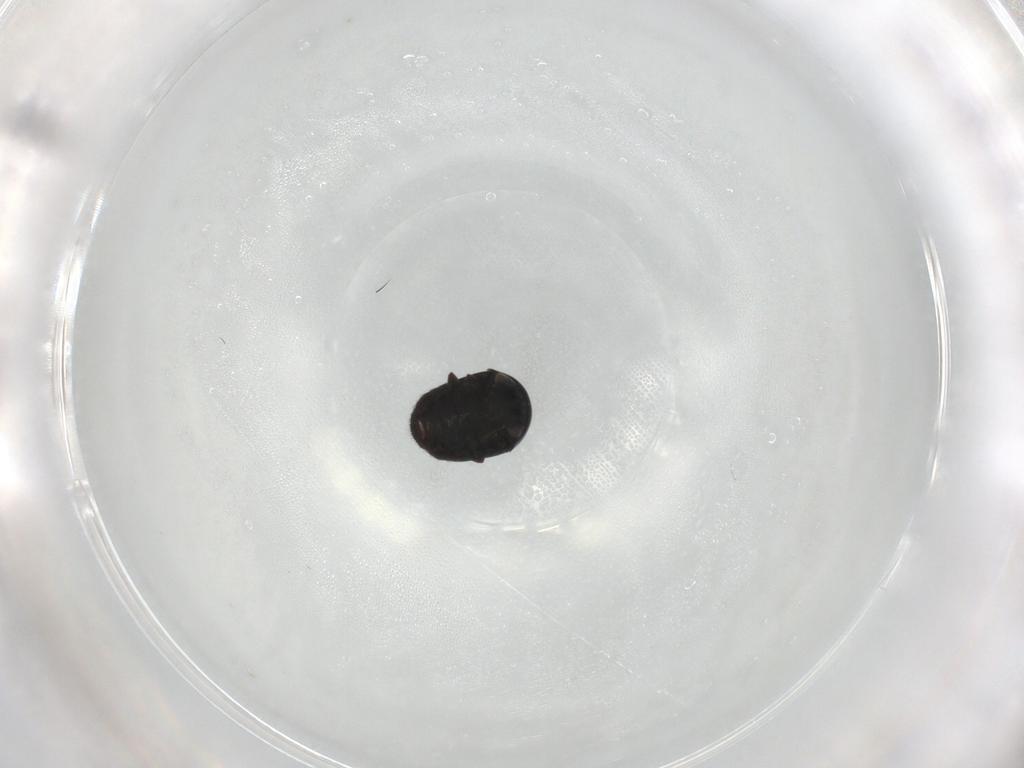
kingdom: Animalia
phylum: Arthropoda
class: Insecta
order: Coleoptera
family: Cybocephalidae
